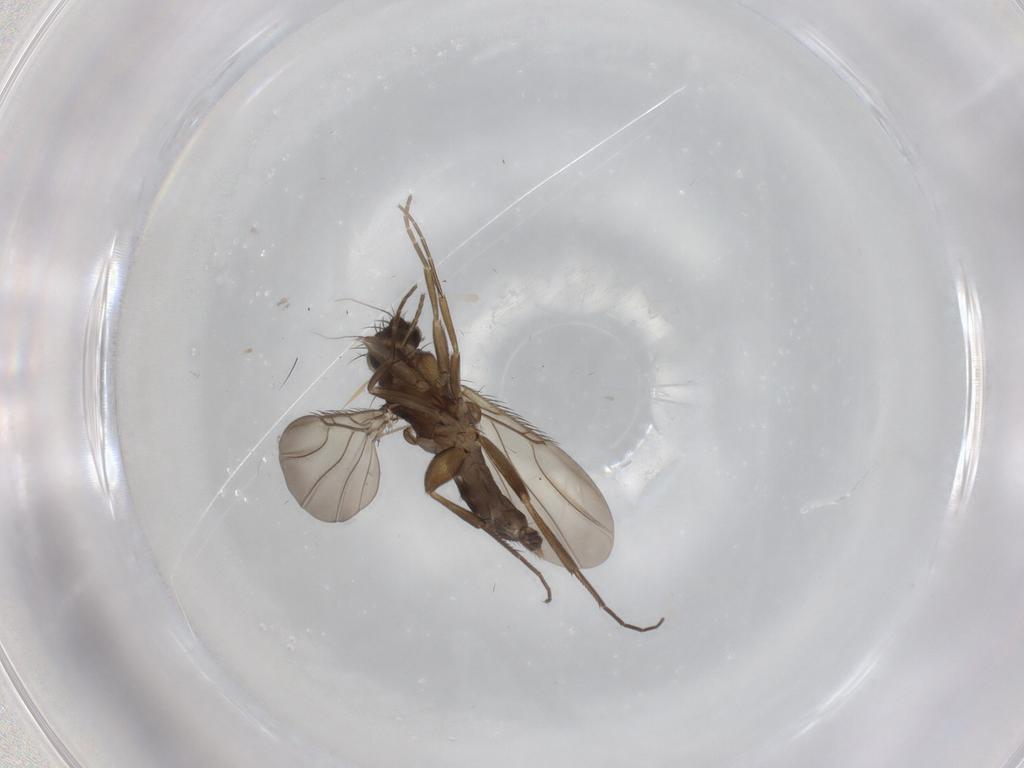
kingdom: Animalia
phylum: Arthropoda
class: Insecta
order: Diptera
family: Phoridae
